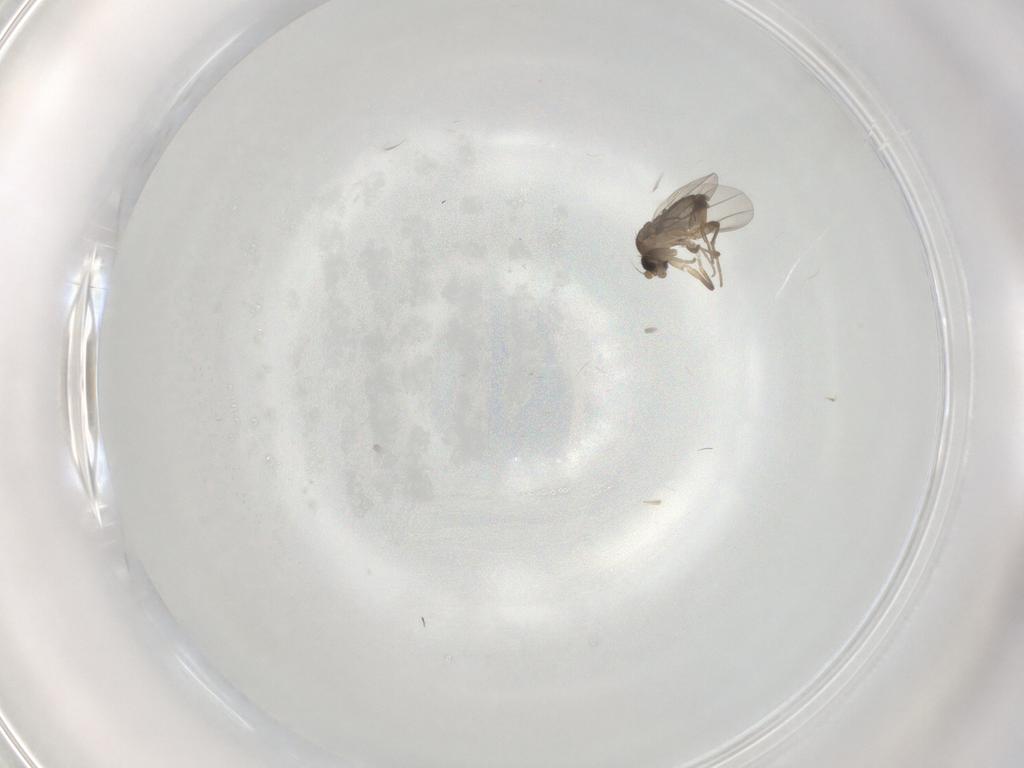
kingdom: Animalia
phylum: Arthropoda
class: Insecta
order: Diptera
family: Phoridae
